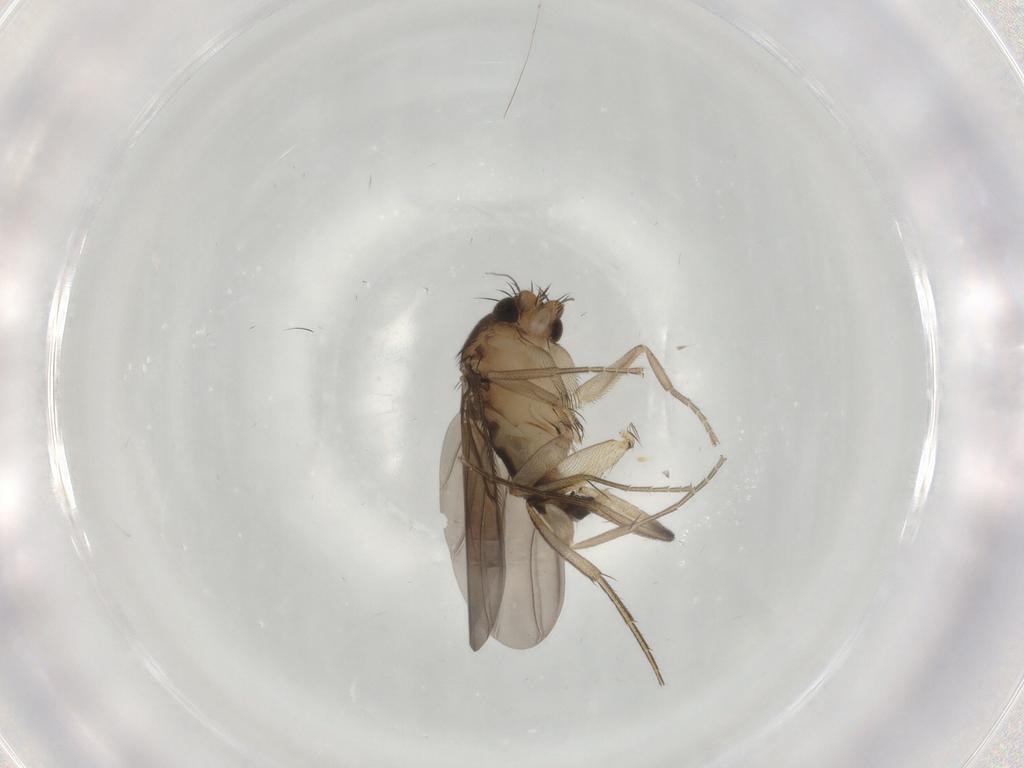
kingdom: Animalia
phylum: Arthropoda
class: Insecta
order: Diptera
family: Phoridae
